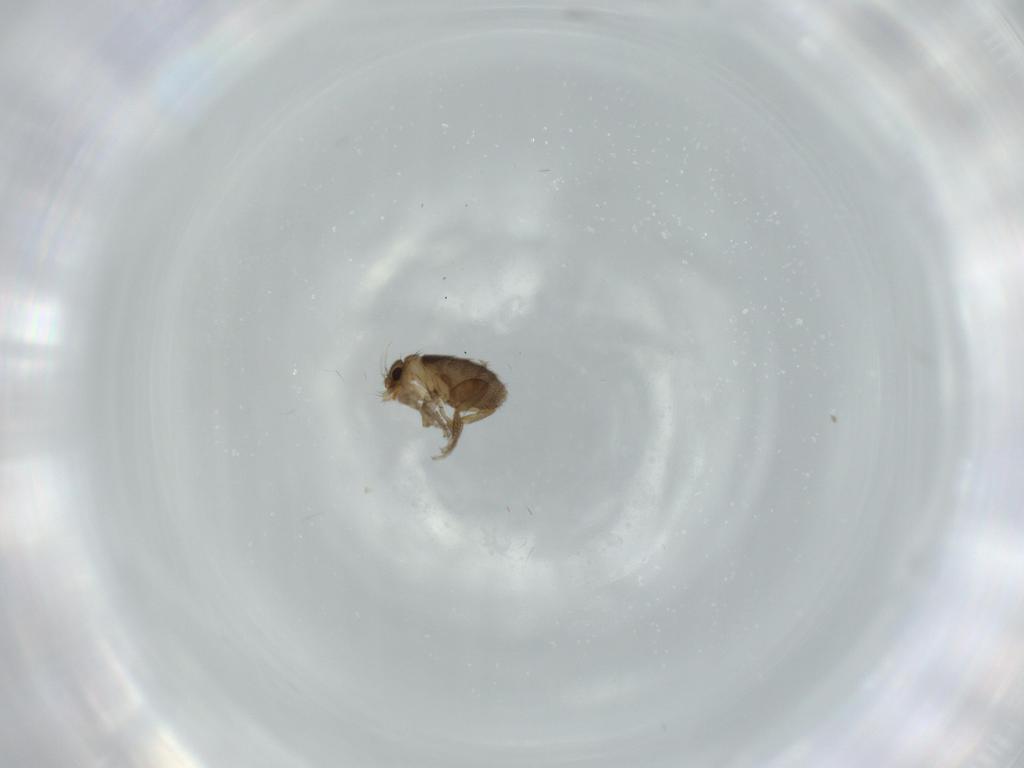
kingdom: Animalia
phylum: Arthropoda
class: Insecta
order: Diptera
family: Phoridae
